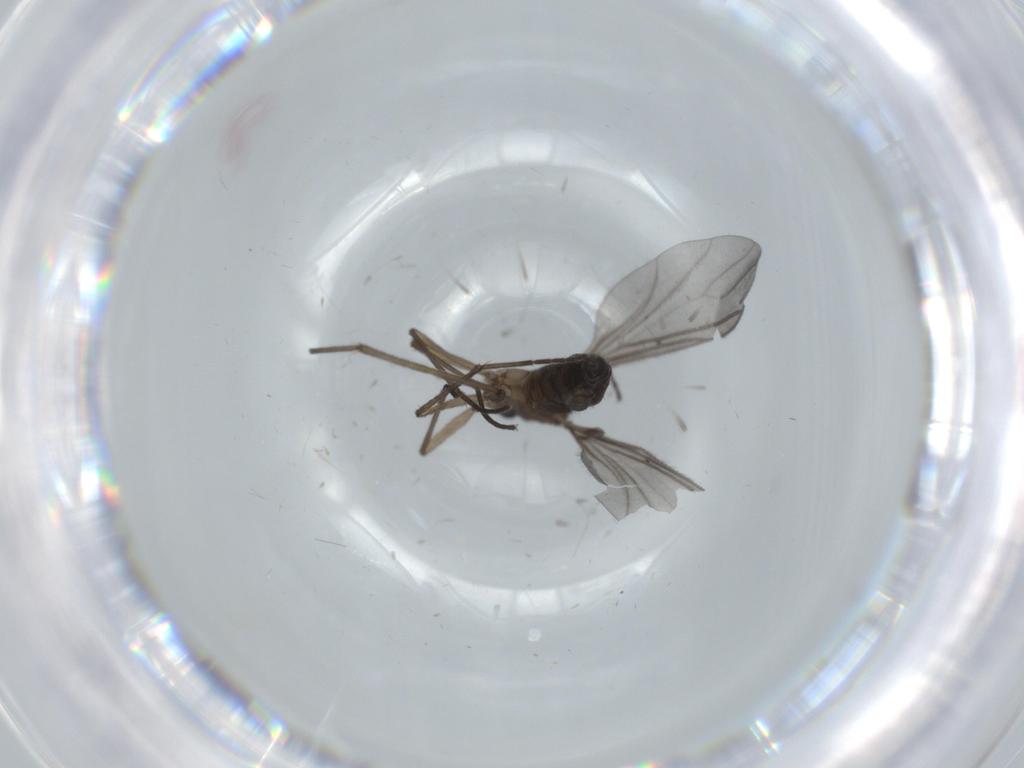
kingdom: Animalia
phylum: Arthropoda
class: Insecta
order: Diptera
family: Sciaridae
